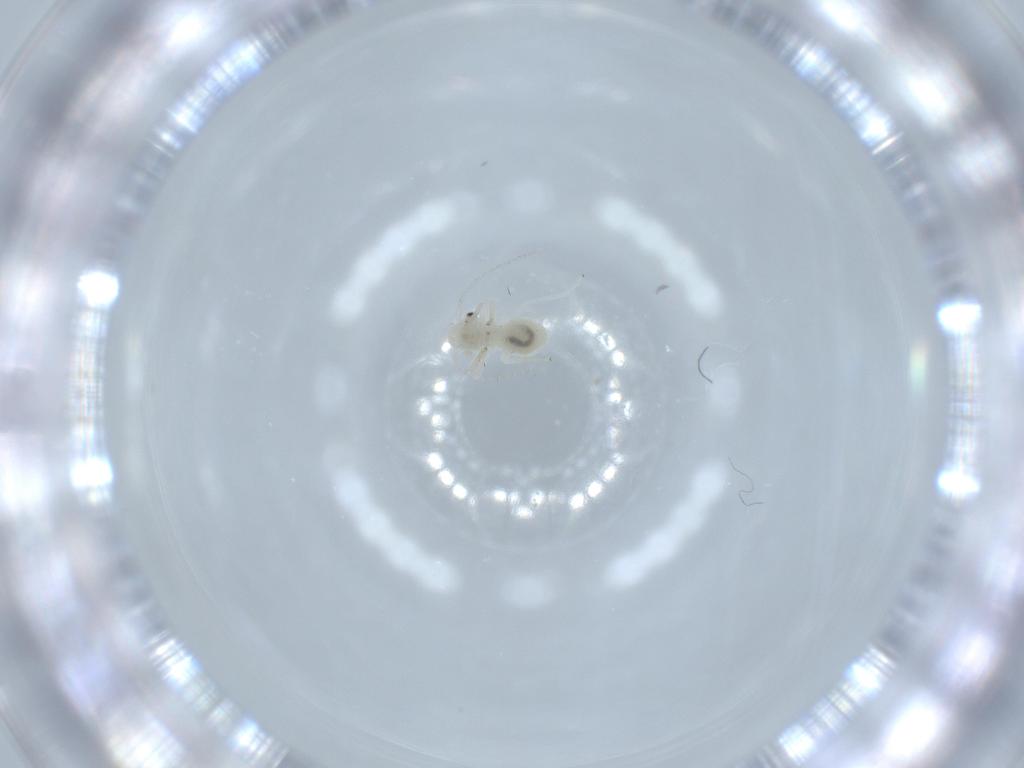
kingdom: Animalia
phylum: Arthropoda
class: Insecta
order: Psocodea
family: Caeciliusidae
